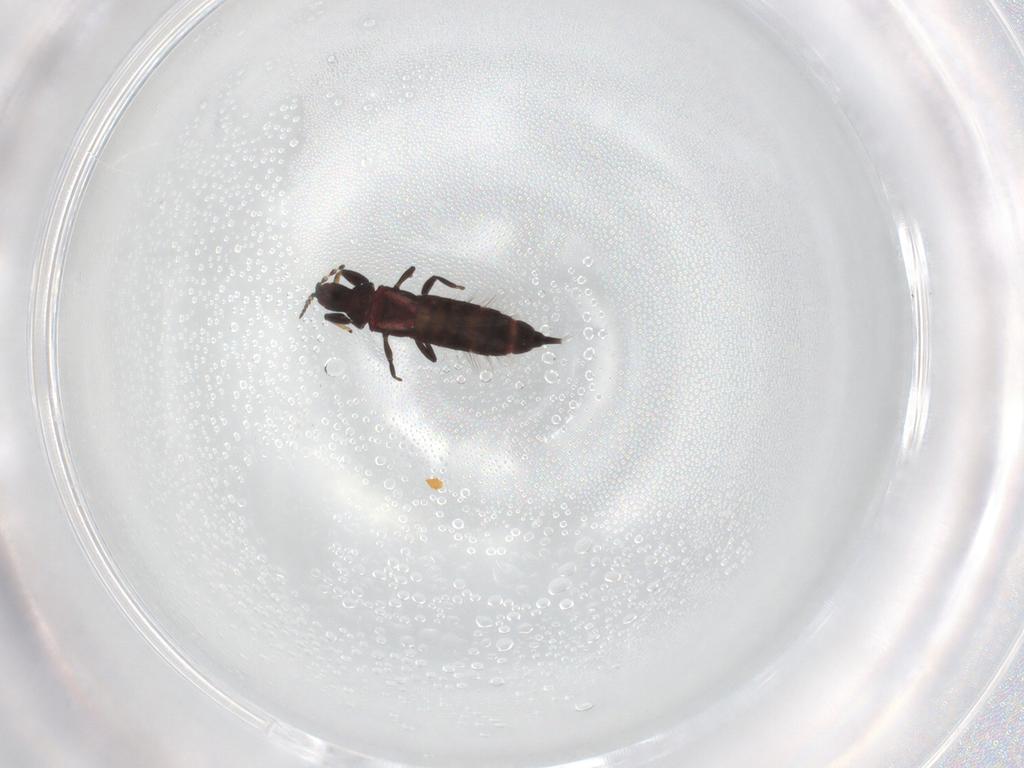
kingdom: Animalia
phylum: Arthropoda
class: Insecta
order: Thysanoptera
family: Phlaeothripidae
